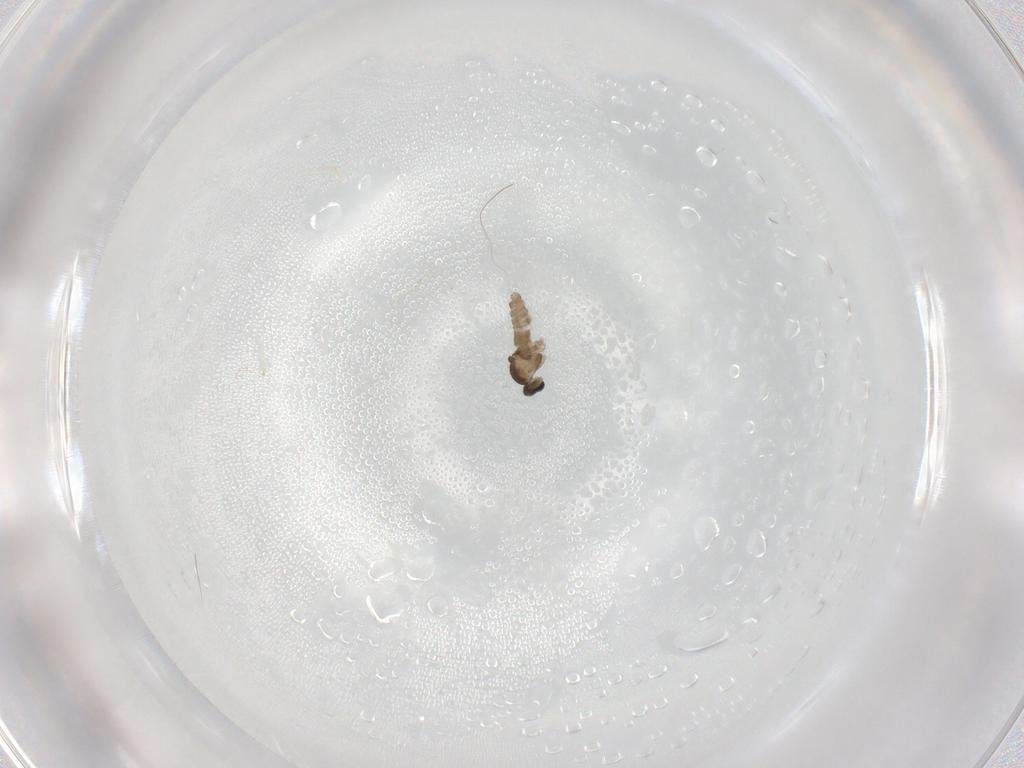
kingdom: Animalia
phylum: Arthropoda
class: Insecta
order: Diptera
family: Cecidomyiidae
